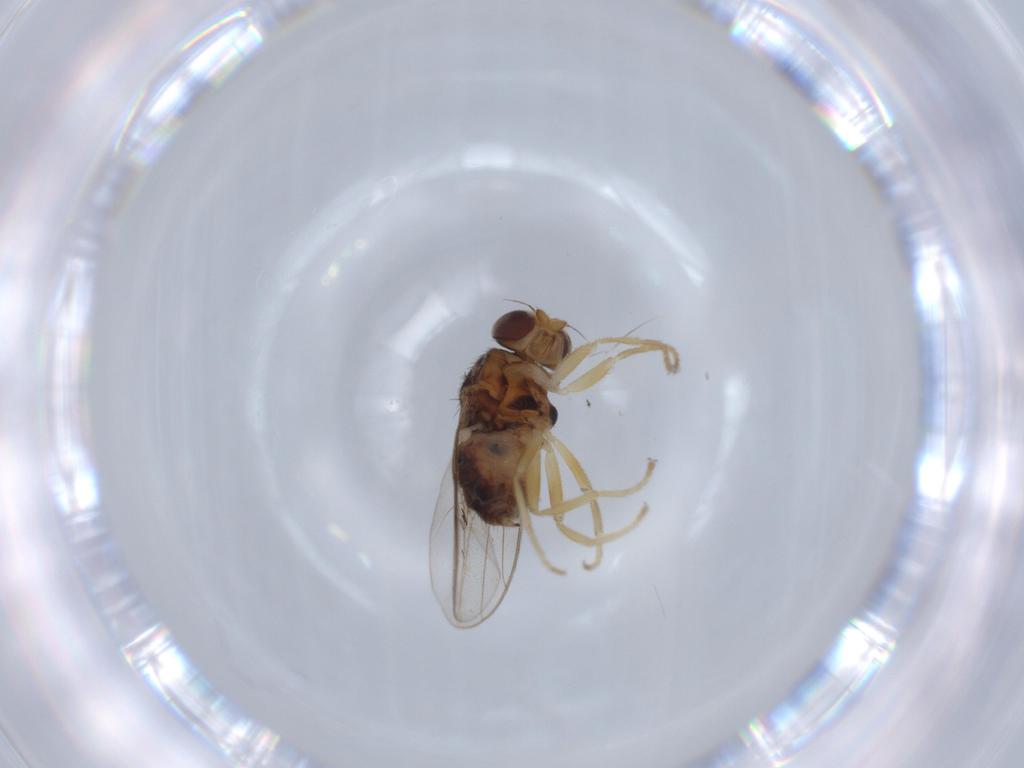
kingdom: Animalia
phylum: Arthropoda
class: Insecta
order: Diptera
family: Chloropidae
